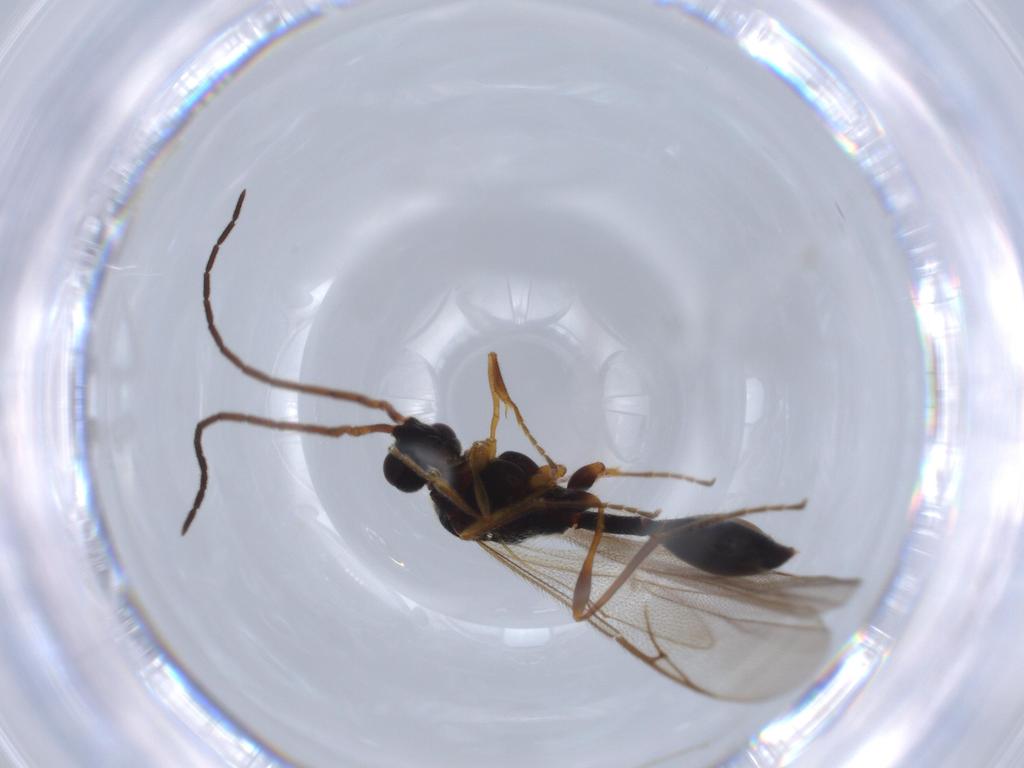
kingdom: Animalia
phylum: Arthropoda
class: Insecta
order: Hymenoptera
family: Diapriidae
